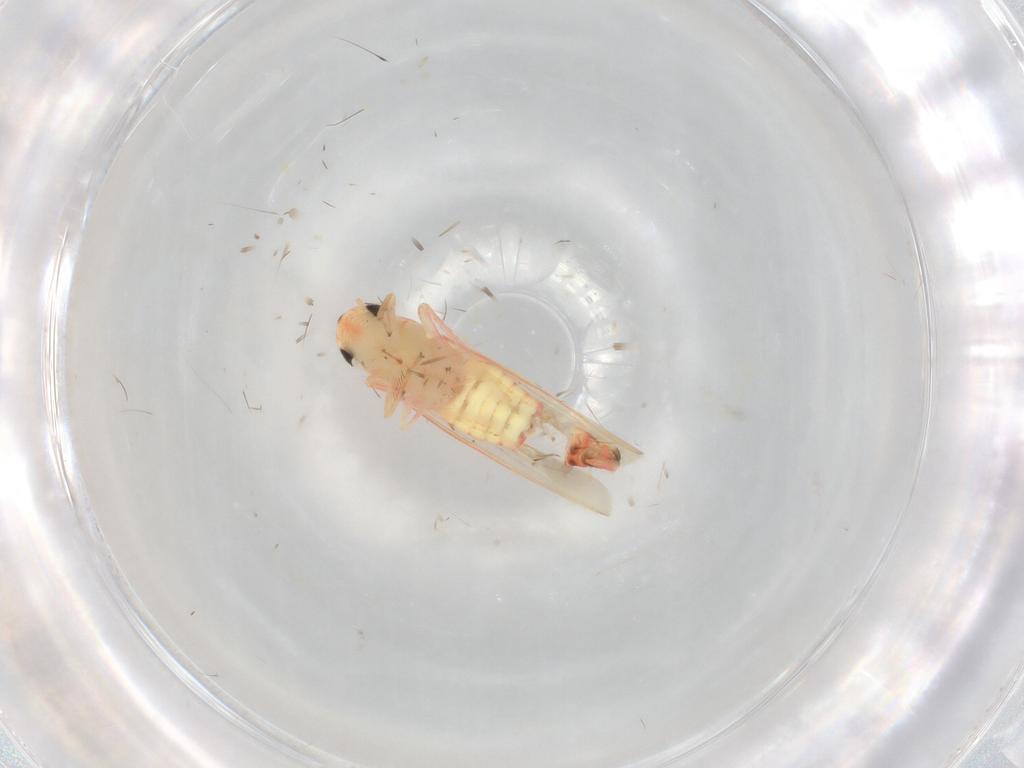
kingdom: Animalia
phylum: Arthropoda
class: Insecta
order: Hemiptera
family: Cicadellidae
